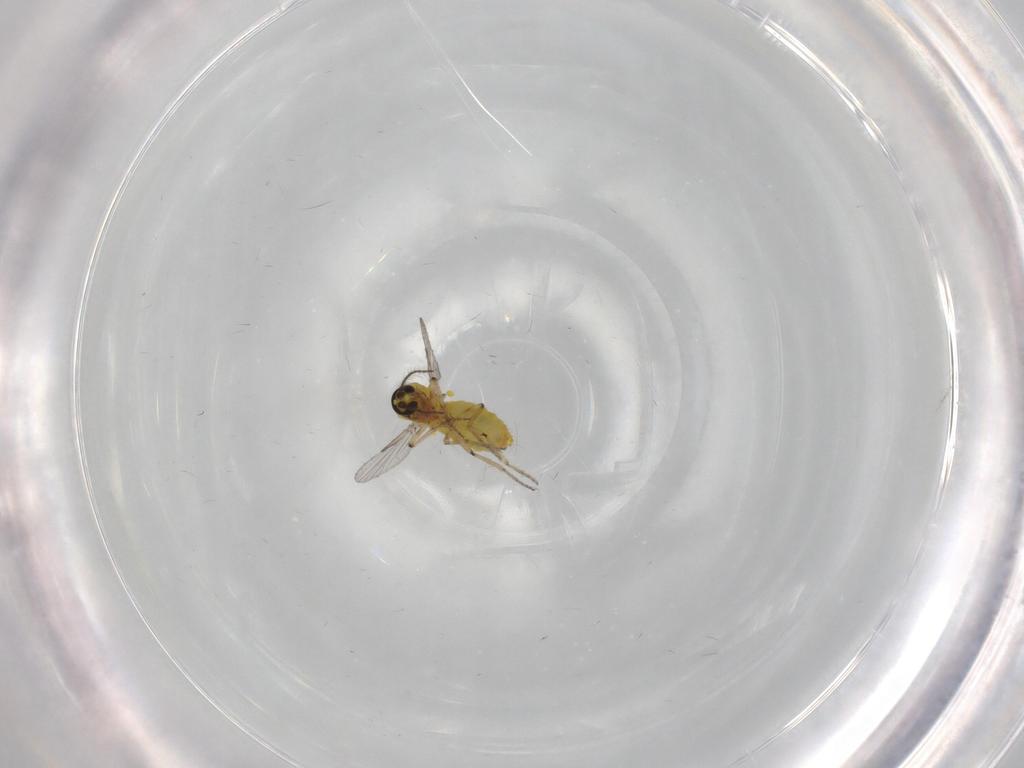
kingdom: Animalia
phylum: Arthropoda
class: Insecta
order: Diptera
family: Ceratopogonidae
